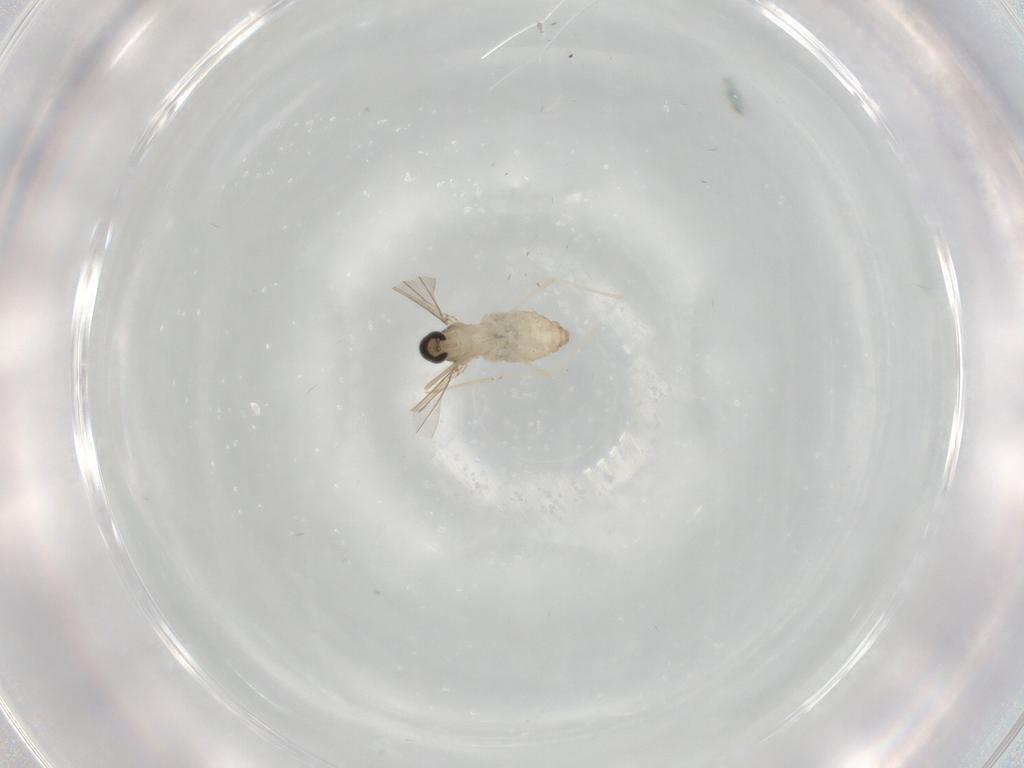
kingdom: Animalia
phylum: Arthropoda
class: Insecta
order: Diptera
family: Cecidomyiidae
